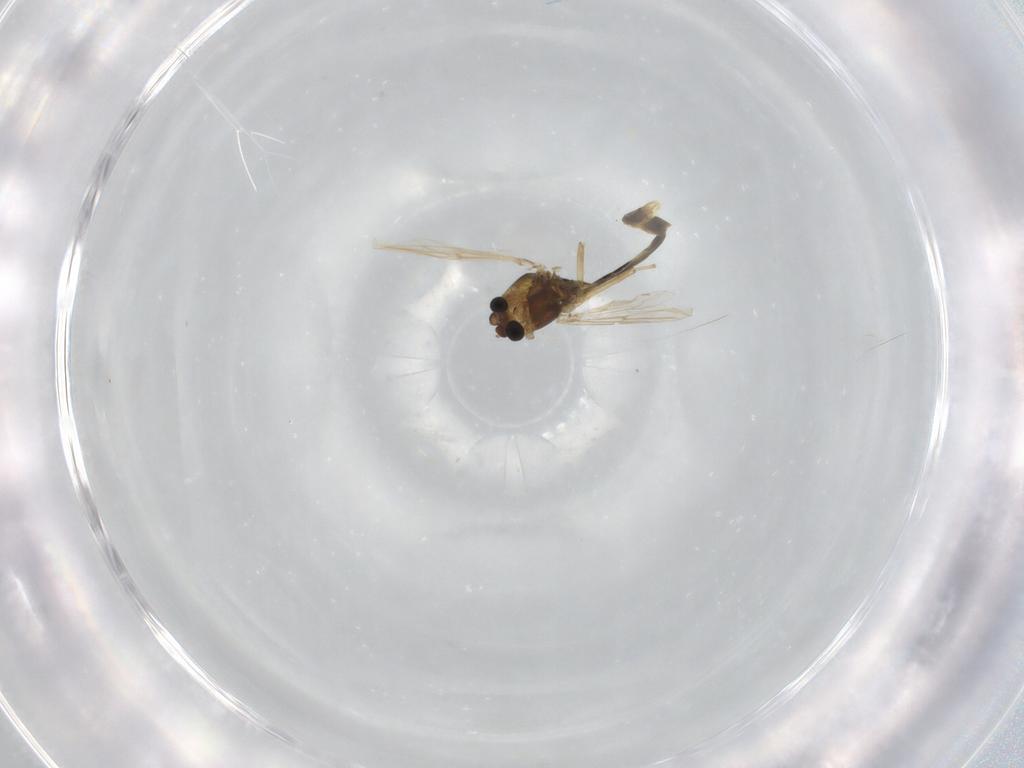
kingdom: Animalia
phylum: Arthropoda
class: Insecta
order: Diptera
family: Chironomidae
